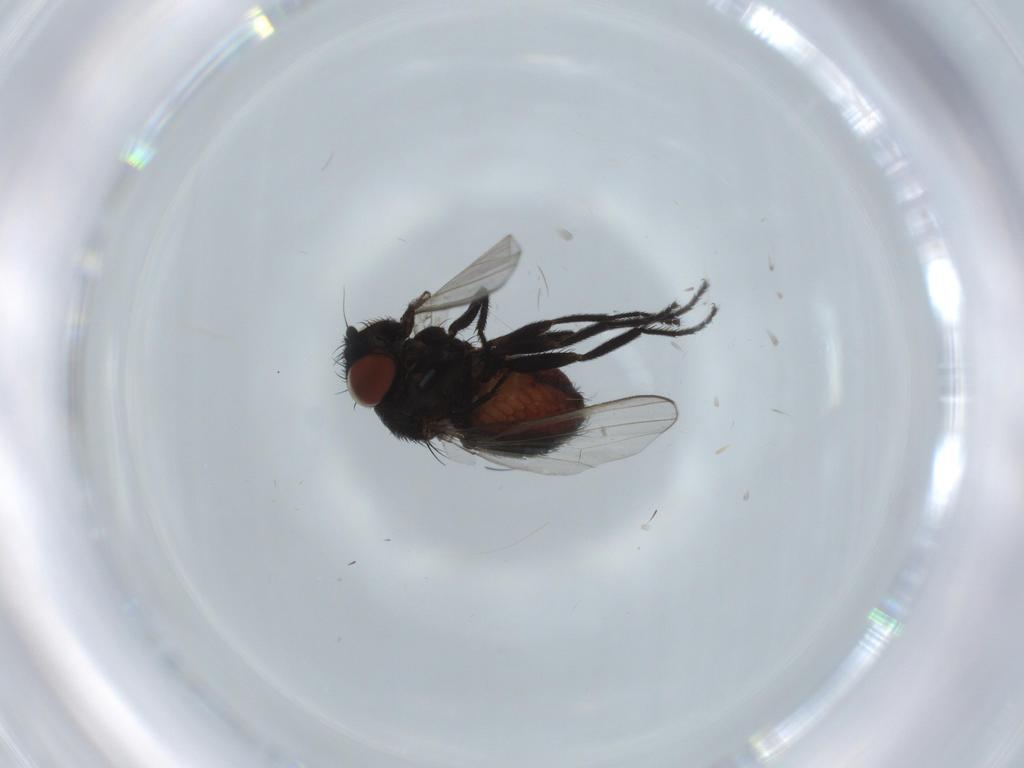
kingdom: Animalia
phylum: Arthropoda
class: Insecta
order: Diptera
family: Milichiidae
